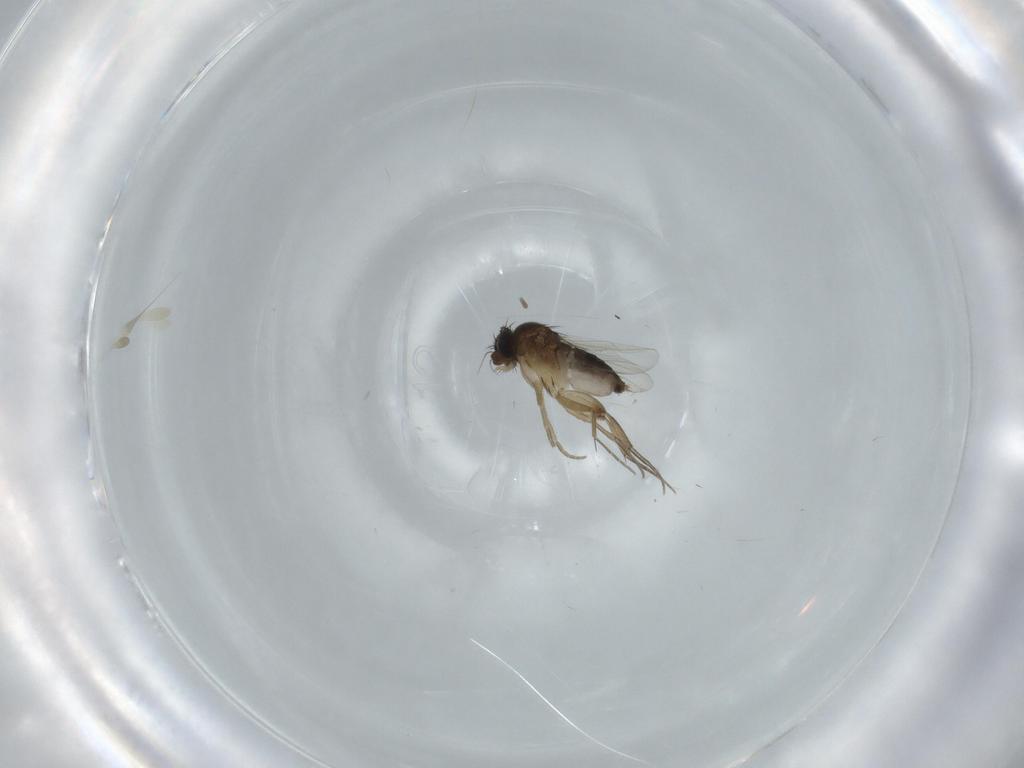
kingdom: Animalia
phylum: Arthropoda
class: Insecta
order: Diptera
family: Phoridae
